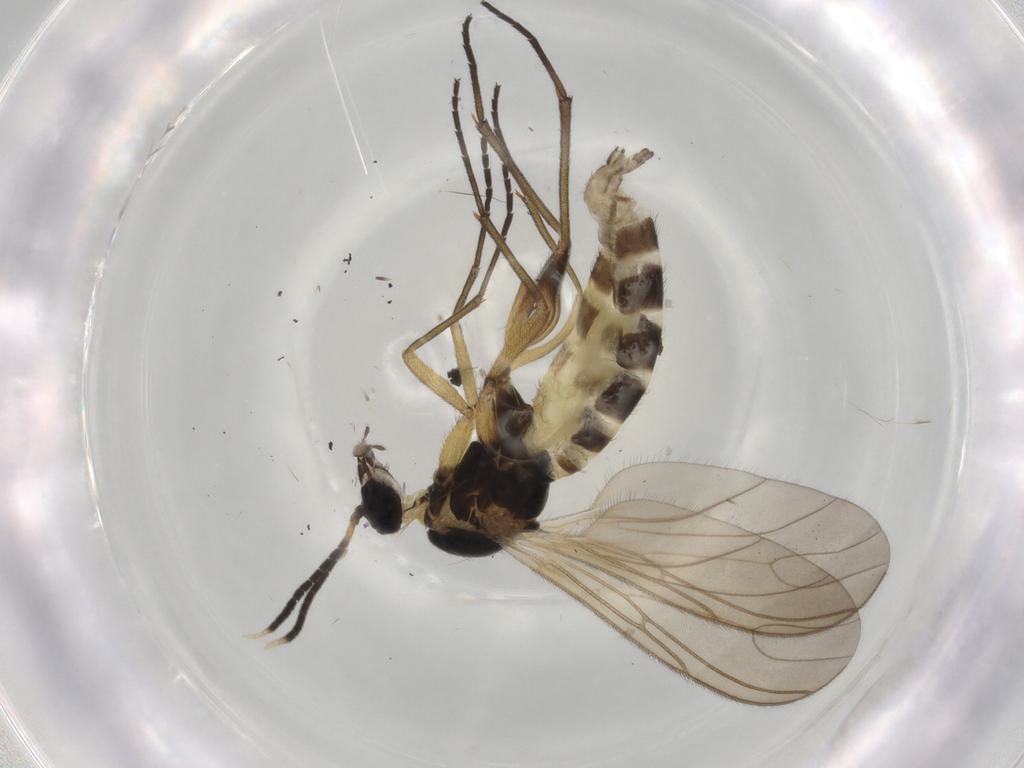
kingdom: Animalia
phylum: Arthropoda
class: Insecta
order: Diptera
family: Sciaridae
